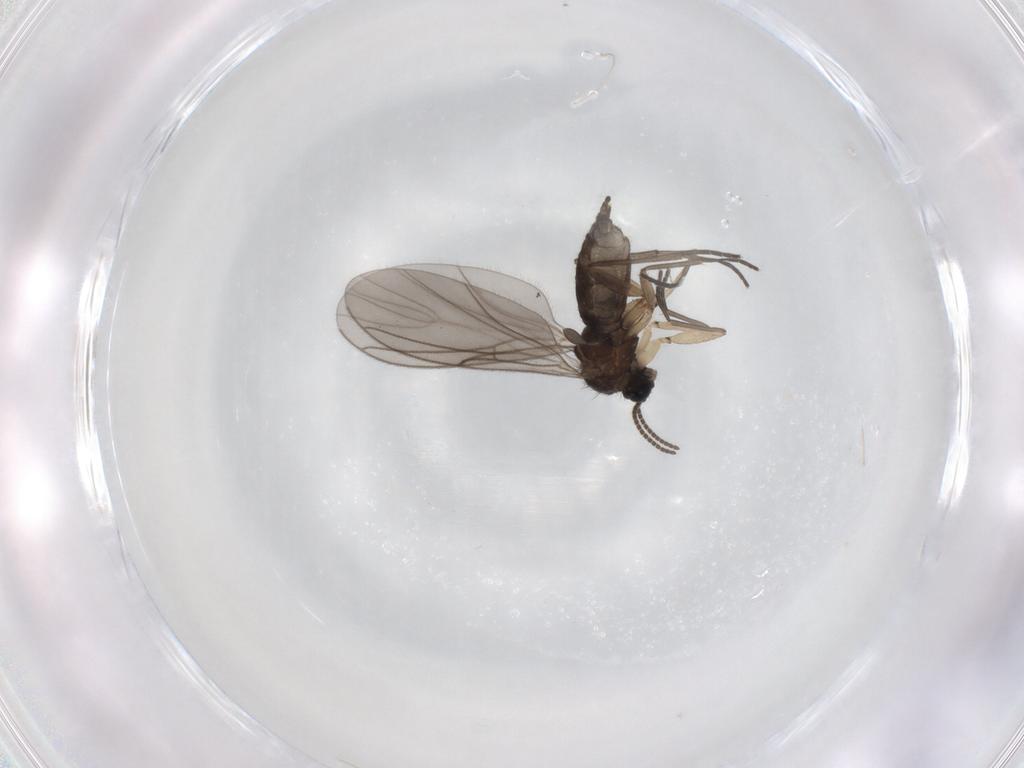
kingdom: Animalia
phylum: Arthropoda
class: Insecta
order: Diptera
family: Sciaridae
